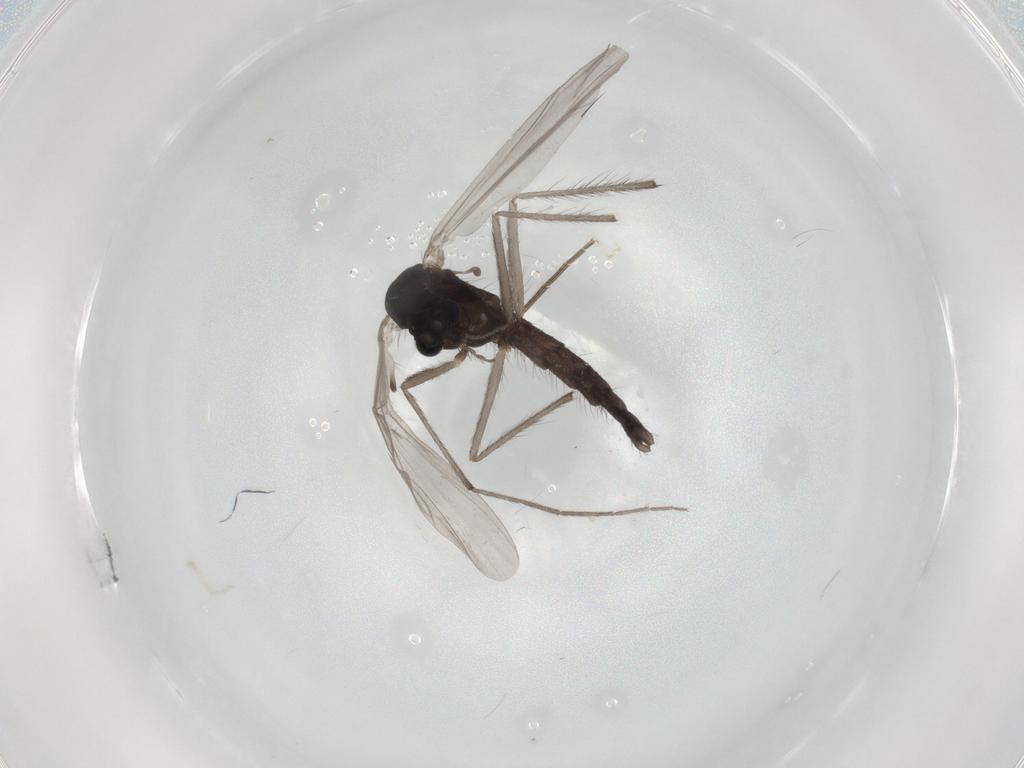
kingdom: Animalia
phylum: Arthropoda
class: Insecta
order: Diptera
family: Chironomidae
